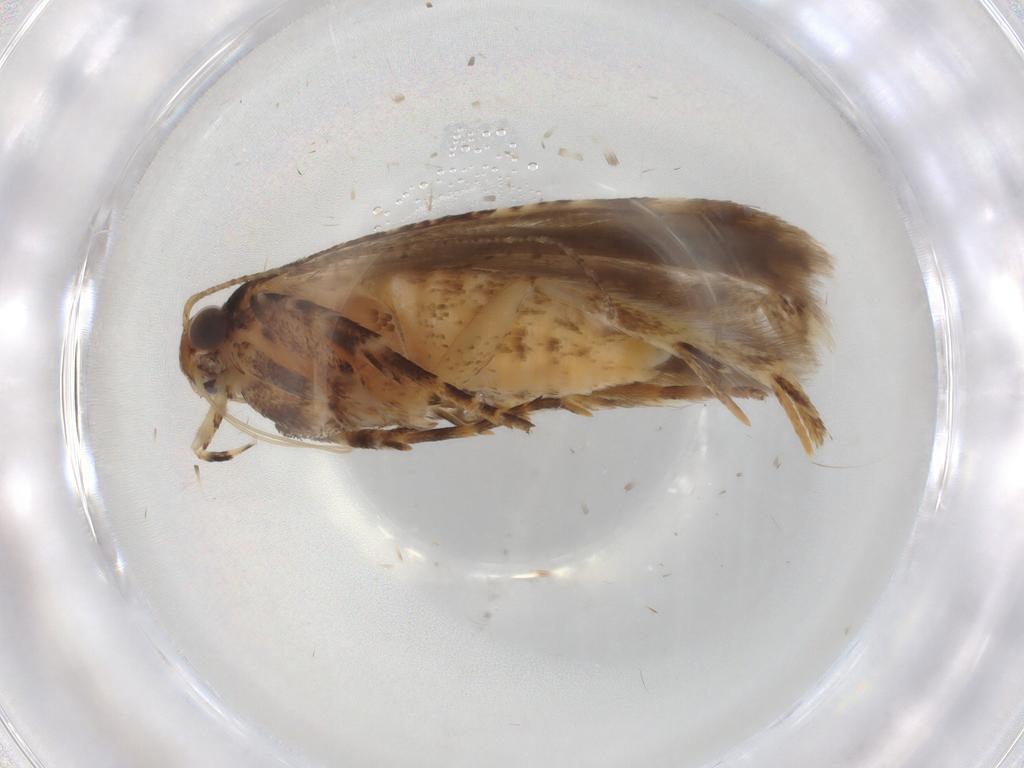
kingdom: Animalia
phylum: Arthropoda
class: Insecta
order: Lepidoptera
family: Gelechiidae
